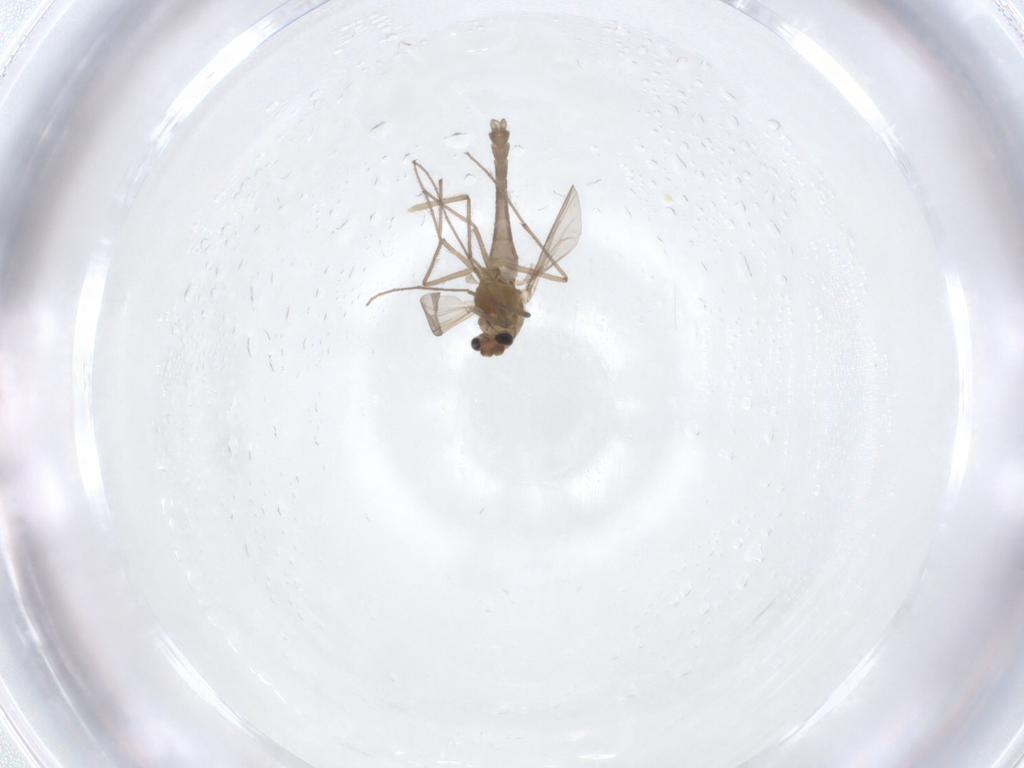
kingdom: Animalia
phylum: Arthropoda
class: Insecta
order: Diptera
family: Chironomidae
